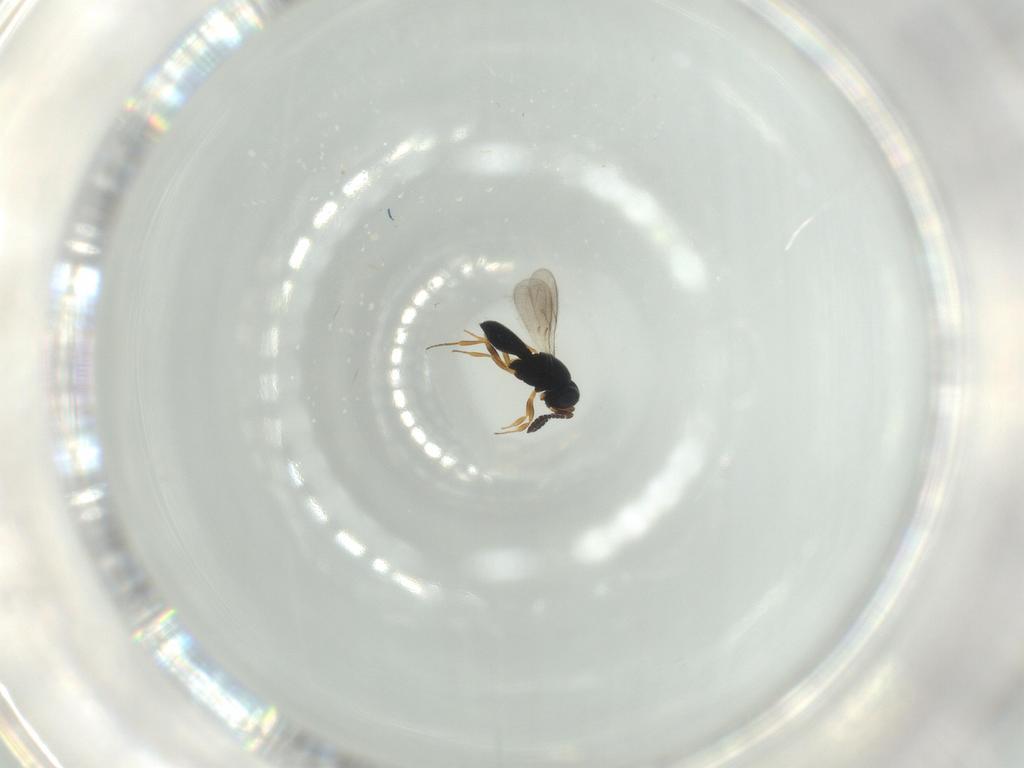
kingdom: Animalia
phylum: Arthropoda
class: Insecta
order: Hymenoptera
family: Scelionidae
